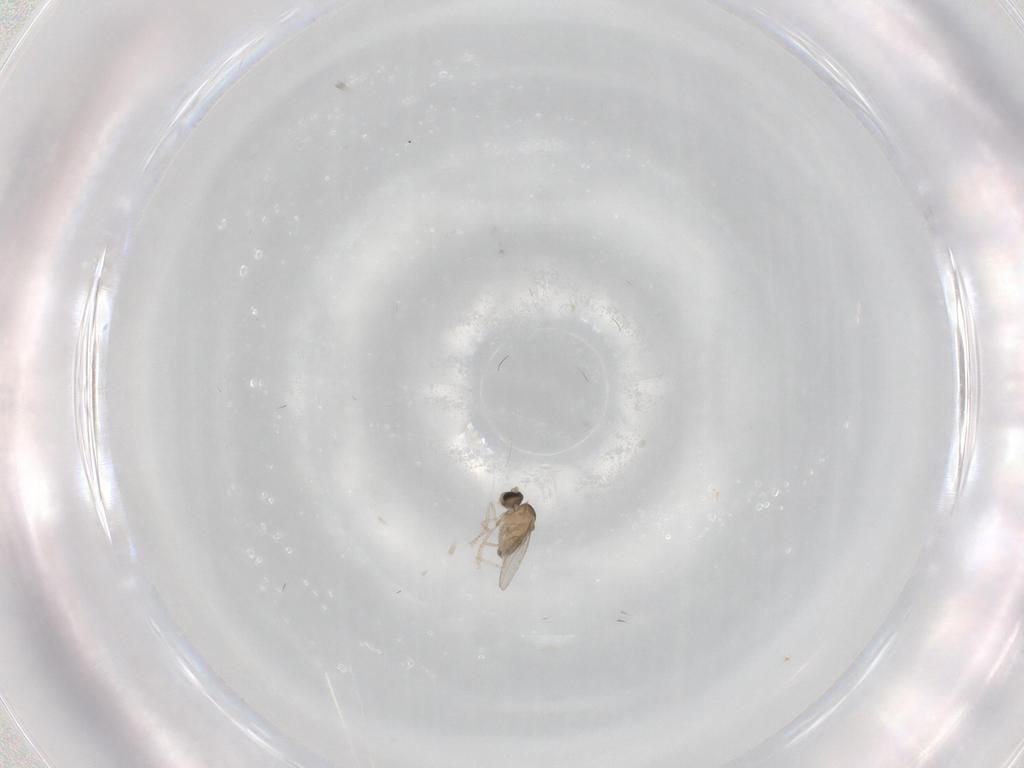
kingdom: Animalia
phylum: Arthropoda
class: Insecta
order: Diptera
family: Cecidomyiidae
